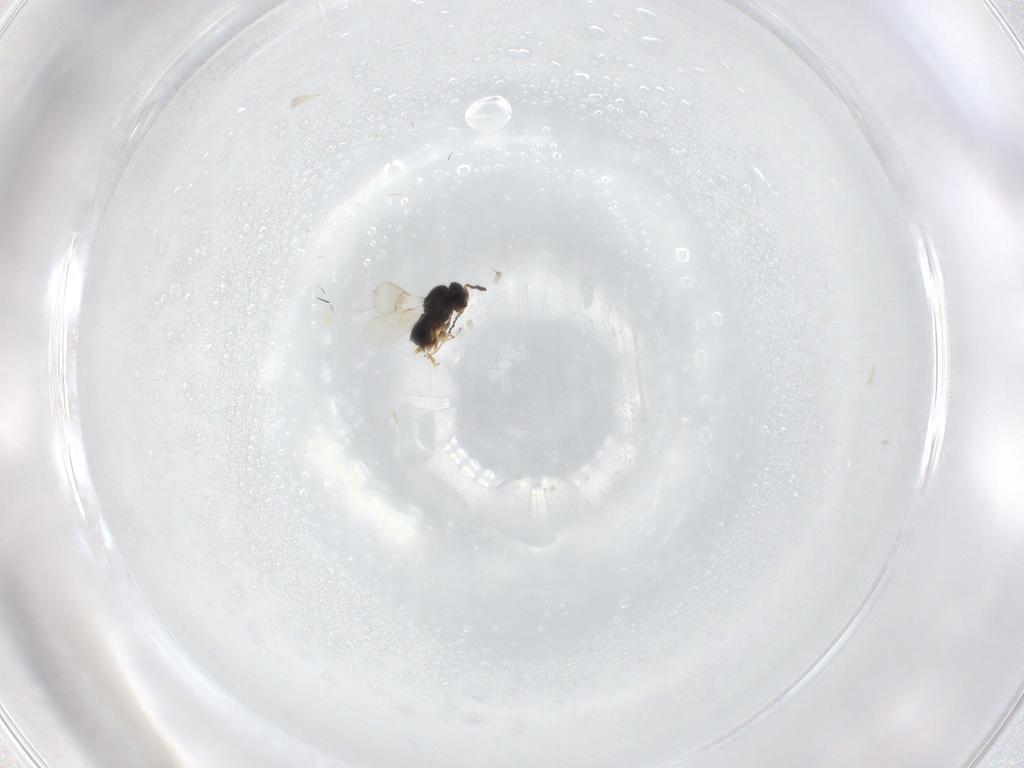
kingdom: Animalia
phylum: Arthropoda
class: Insecta
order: Hymenoptera
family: Scelionidae
